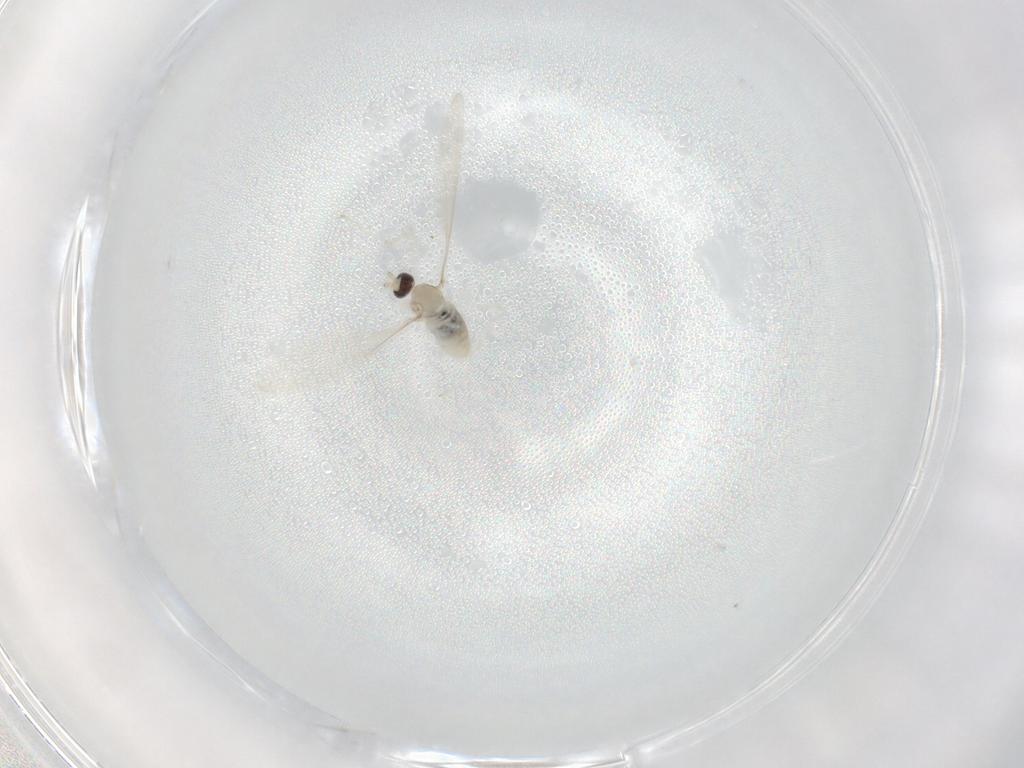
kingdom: Animalia
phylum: Arthropoda
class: Insecta
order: Diptera
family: Cecidomyiidae
